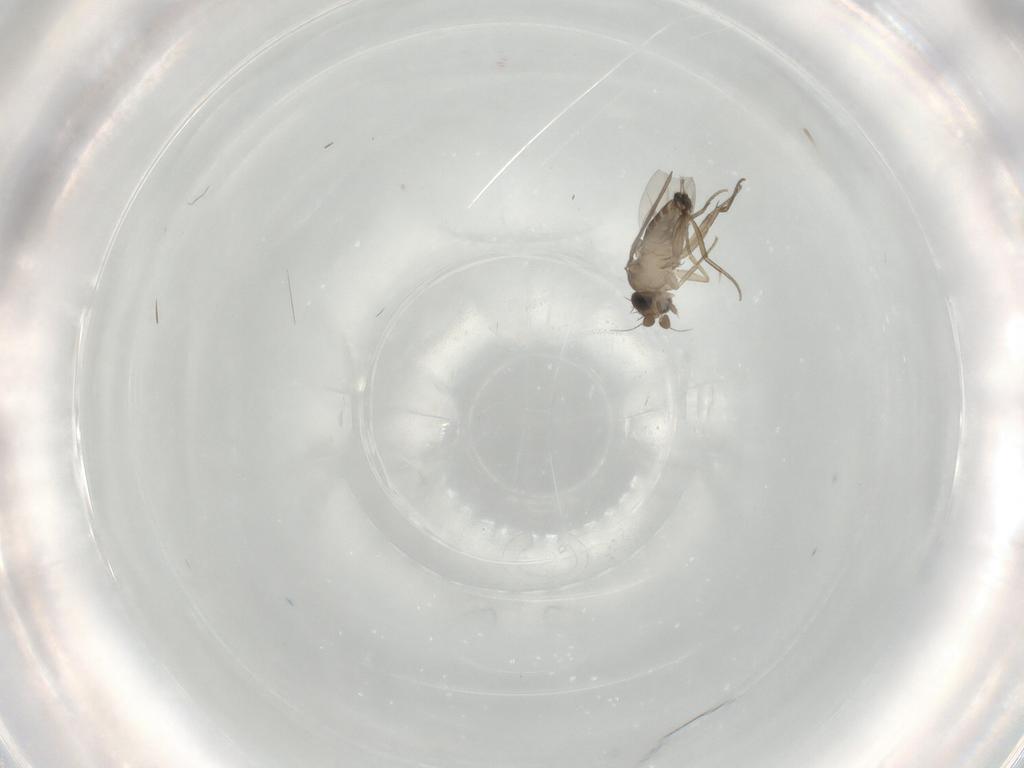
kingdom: Animalia
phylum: Arthropoda
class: Insecta
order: Diptera
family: Phoridae
